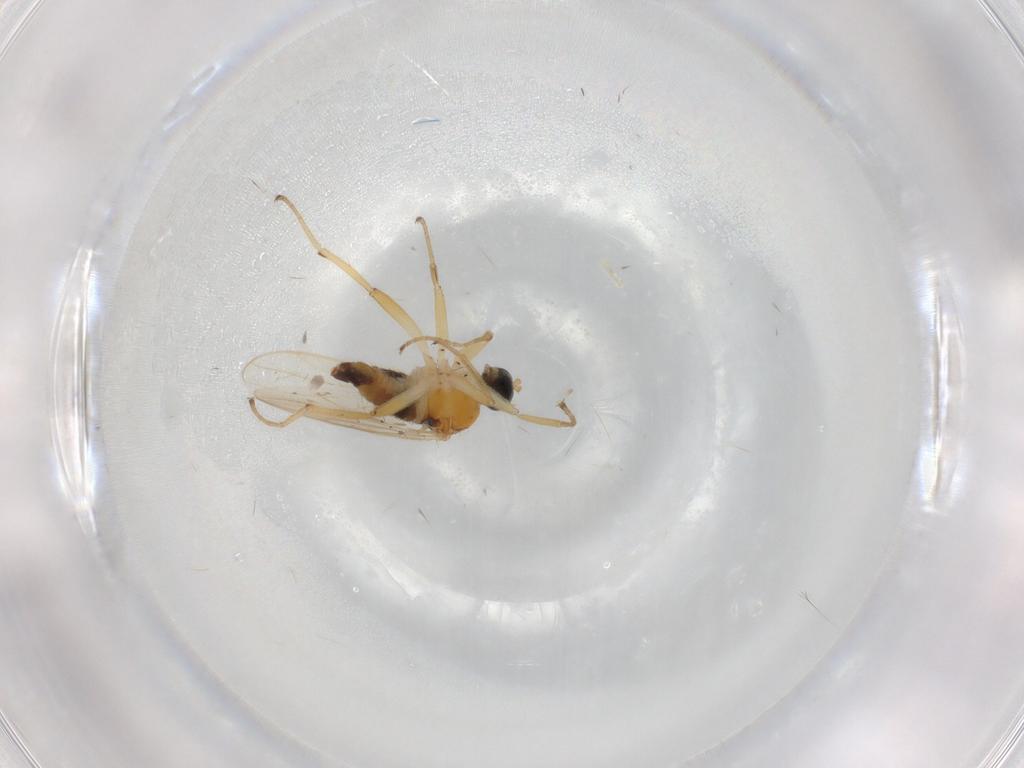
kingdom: Animalia
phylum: Arthropoda
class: Insecta
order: Diptera
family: Hybotidae
